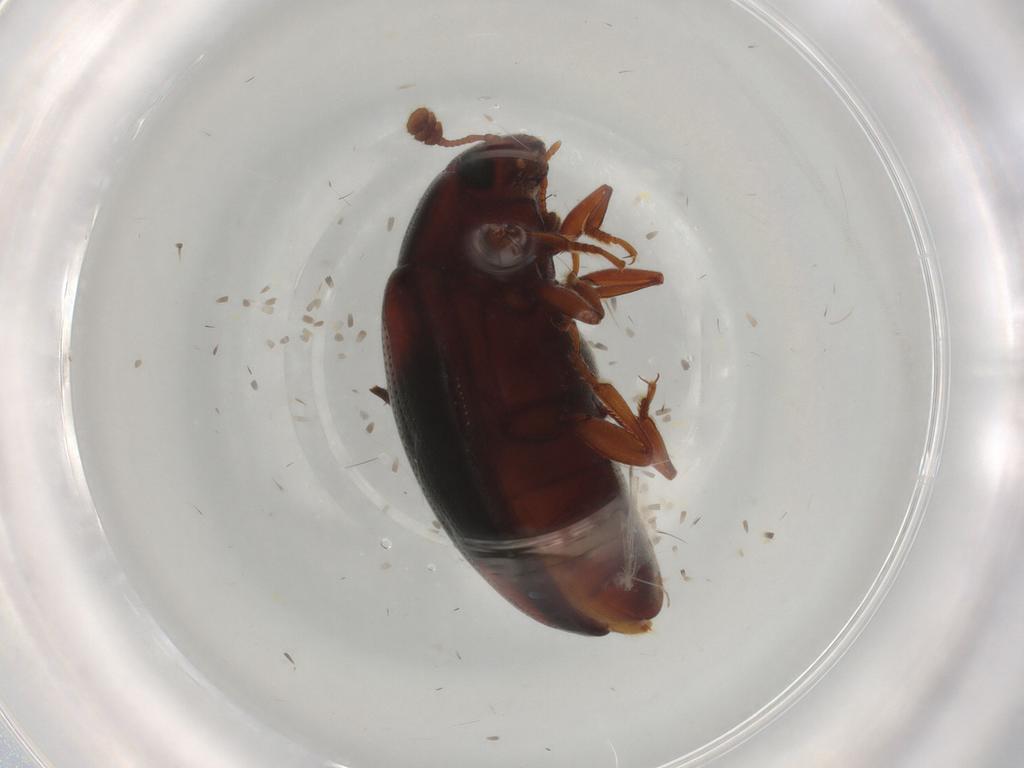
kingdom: Animalia
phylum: Arthropoda
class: Insecta
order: Coleoptera
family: Erotylidae
